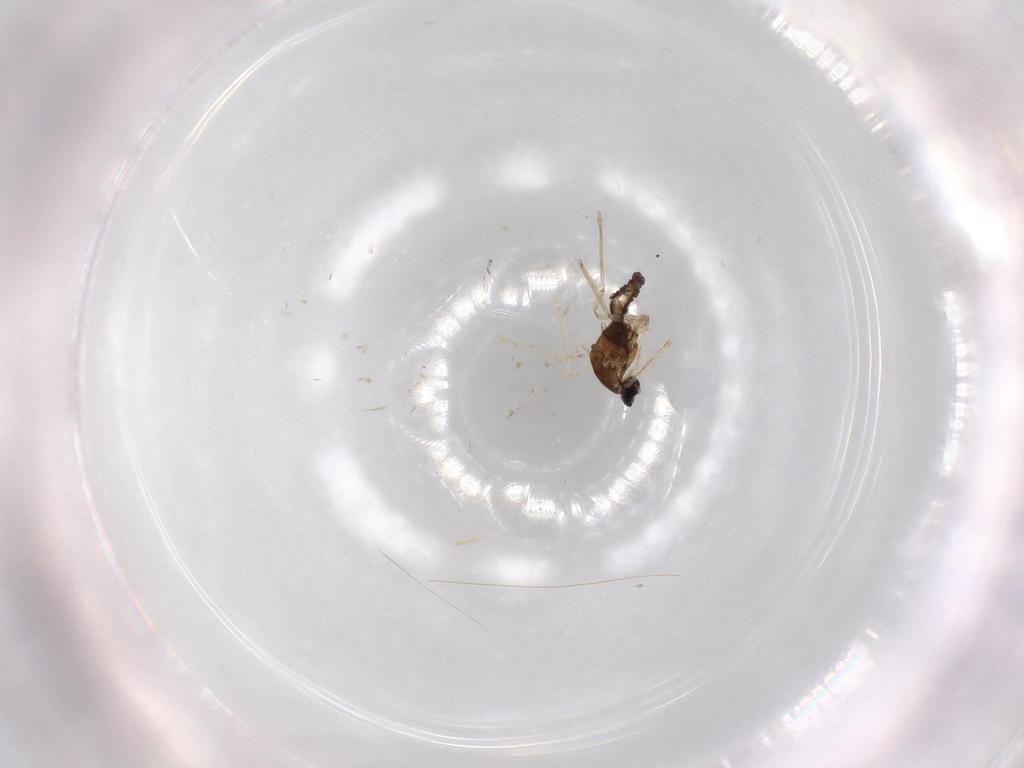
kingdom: Animalia
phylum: Arthropoda
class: Insecta
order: Diptera
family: Cecidomyiidae
